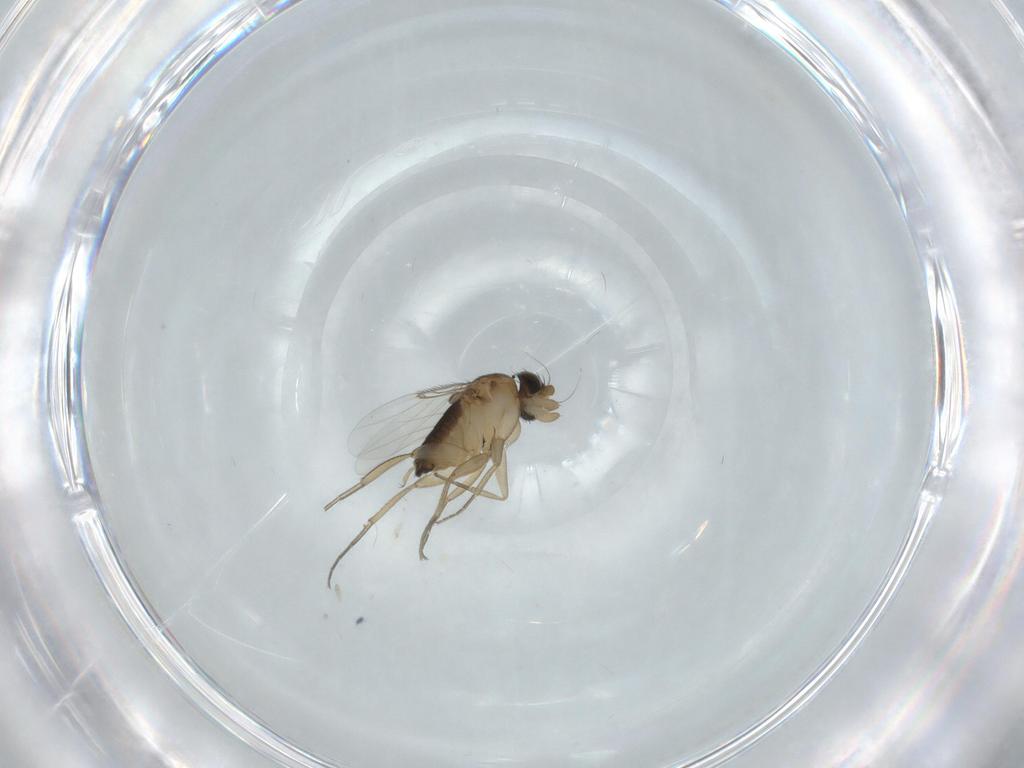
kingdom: Animalia
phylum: Arthropoda
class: Insecta
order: Diptera
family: Cecidomyiidae
